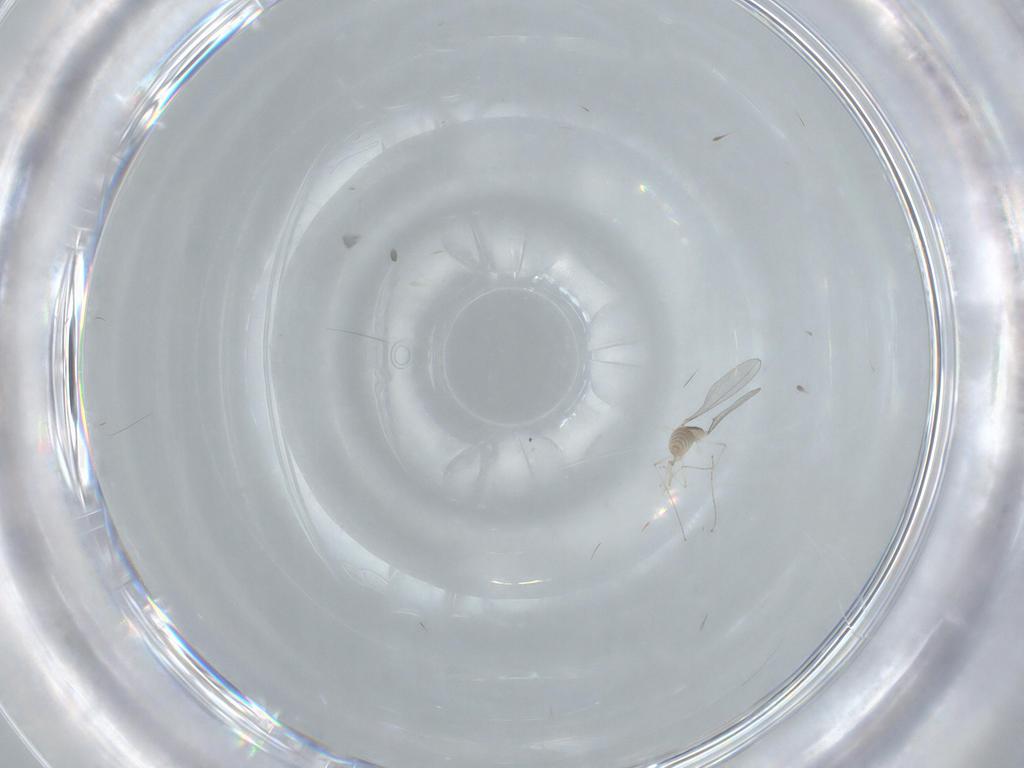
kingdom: Animalia
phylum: Arthropoda
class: Insecta
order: Diptera
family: Cecidomyiidae
